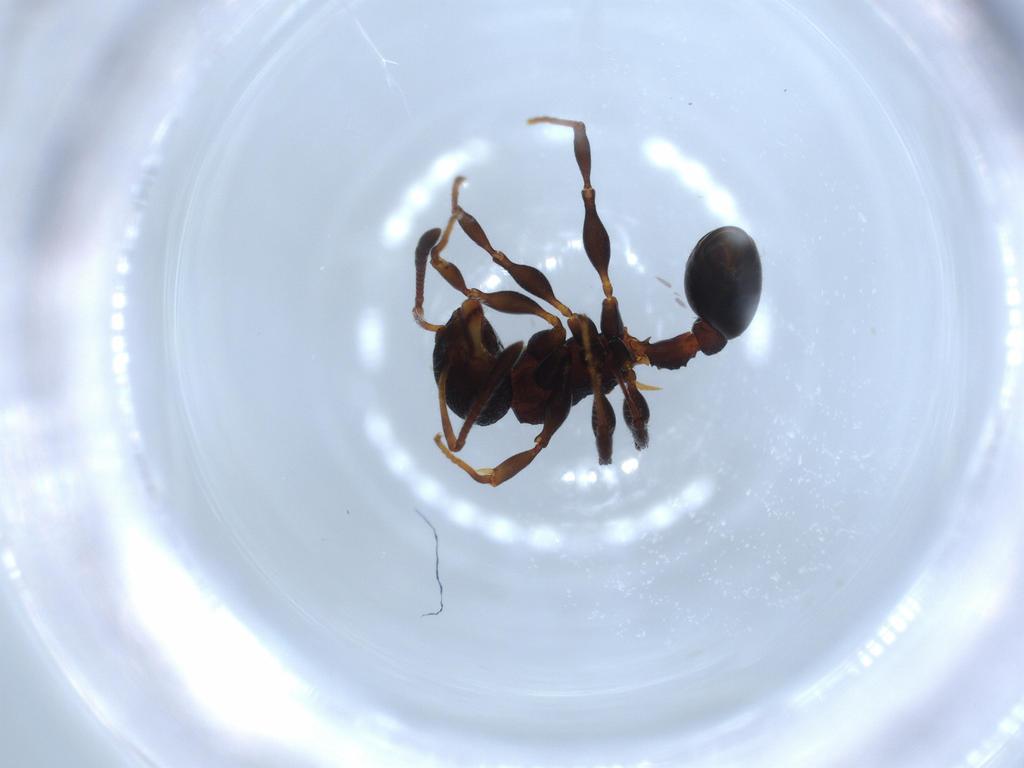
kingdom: Animalia
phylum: Arthropoda
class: Insecta
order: Hymenoptera
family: Formicidae
